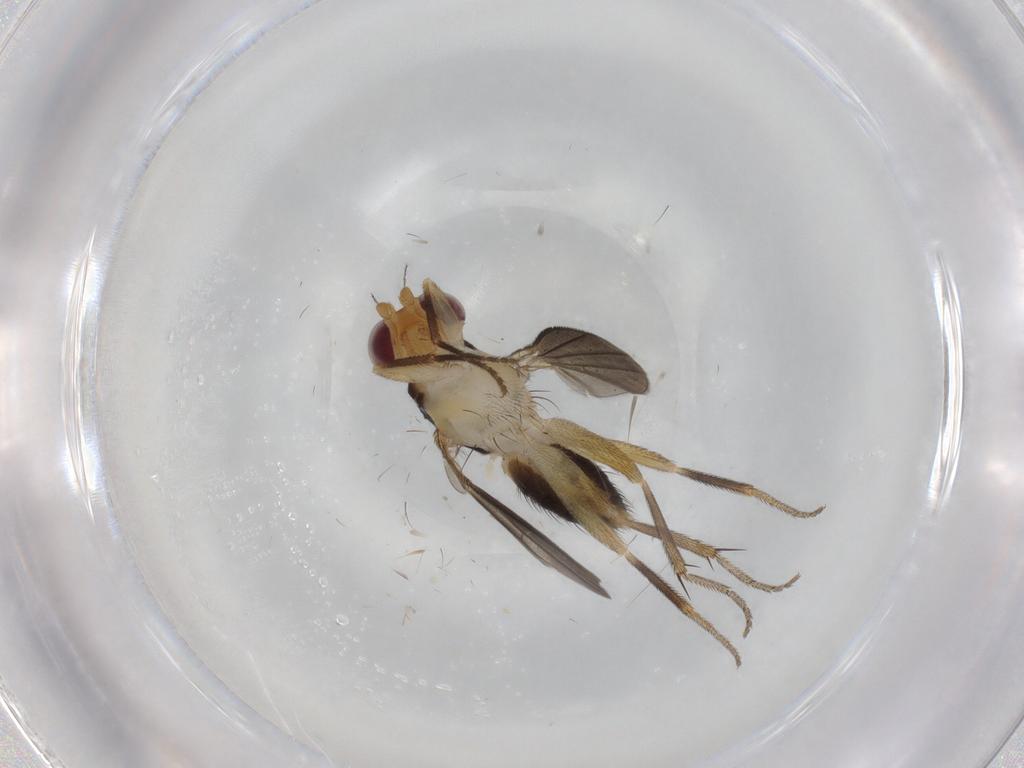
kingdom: Animalia
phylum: Arthropoda
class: Insecta
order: Diptera
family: Clusiidae
